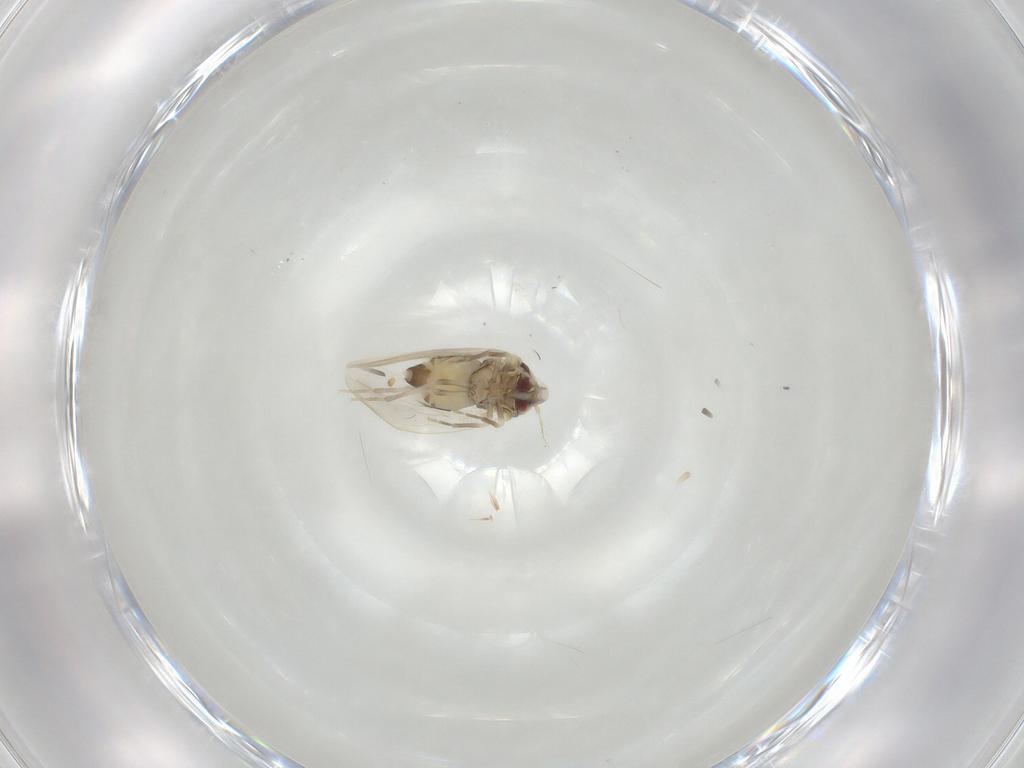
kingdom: Animalia
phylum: Arthropoda
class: Insecta
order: Hemiptera
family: Aleyrodidae
